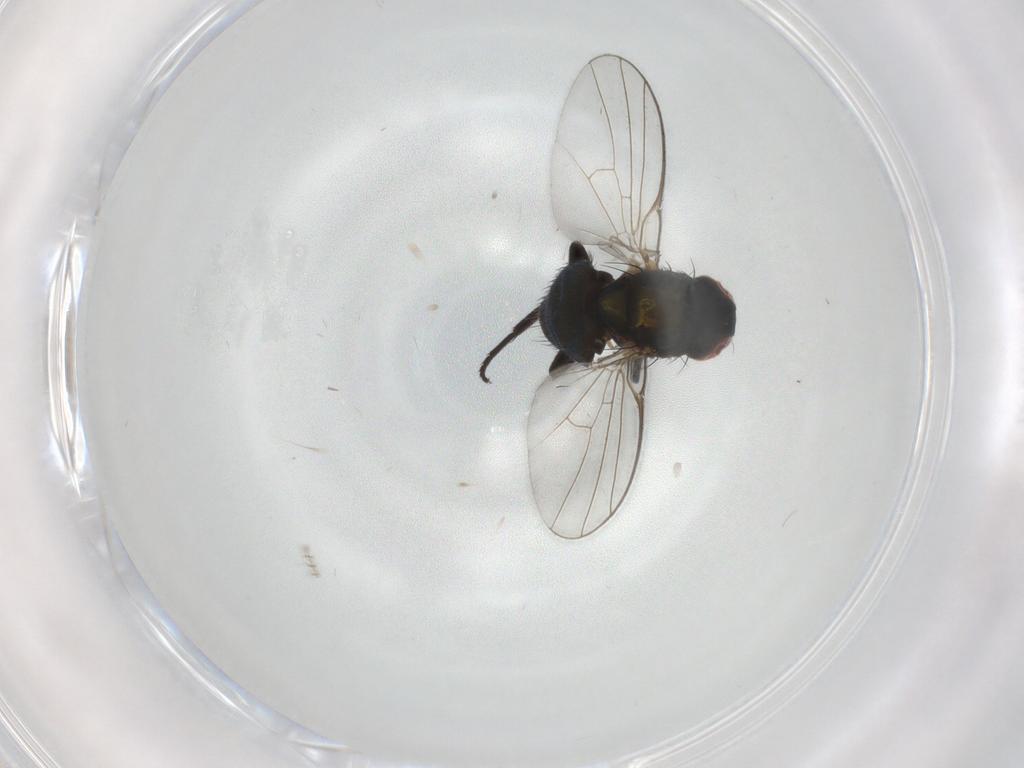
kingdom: Animalia
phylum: Arthropoda
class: Insecta
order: Diptera
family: Agromyzidae
